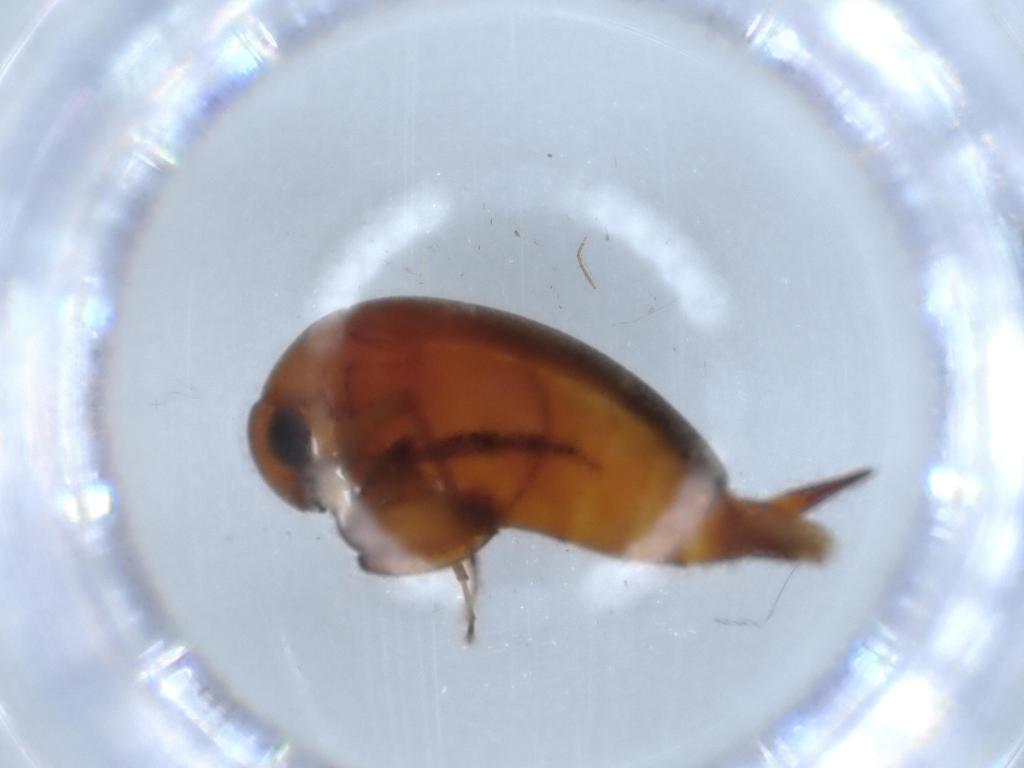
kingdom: Animalia
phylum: Arthropoda
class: Insecta
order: Coleoptera
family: Mordellidae
